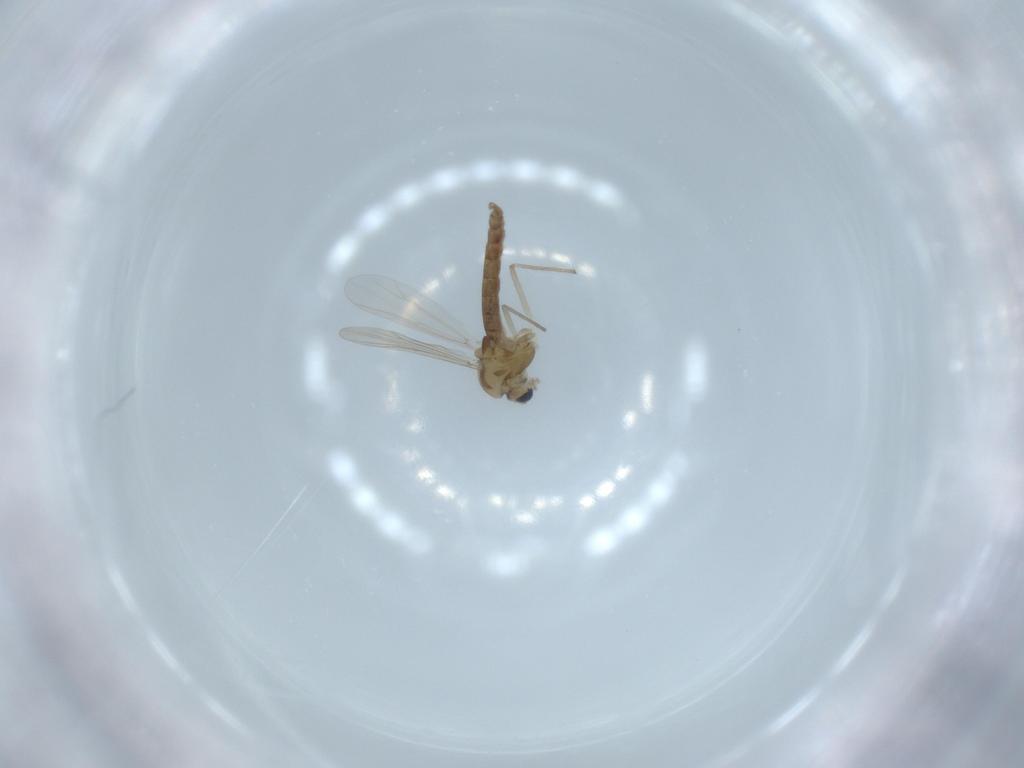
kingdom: Animalia
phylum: Arthropoda
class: Insecta
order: Diptera
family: Chironomidae
